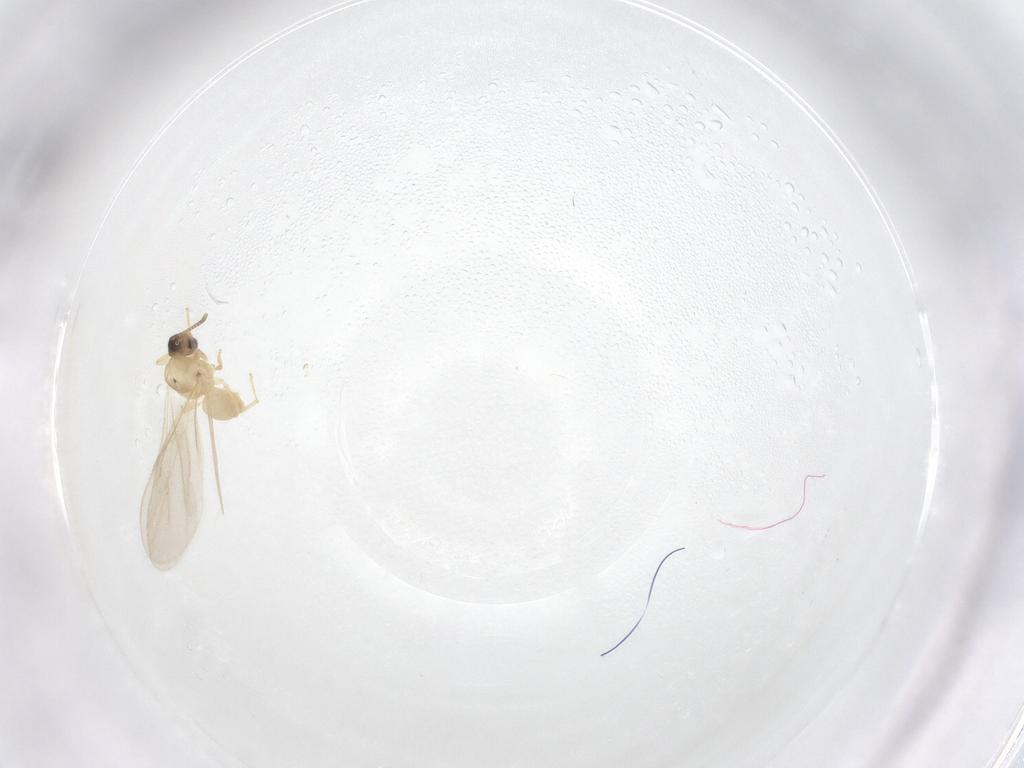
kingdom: Animalia
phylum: Arthropoda
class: Insecta
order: Hymenoptera
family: Formicidae
